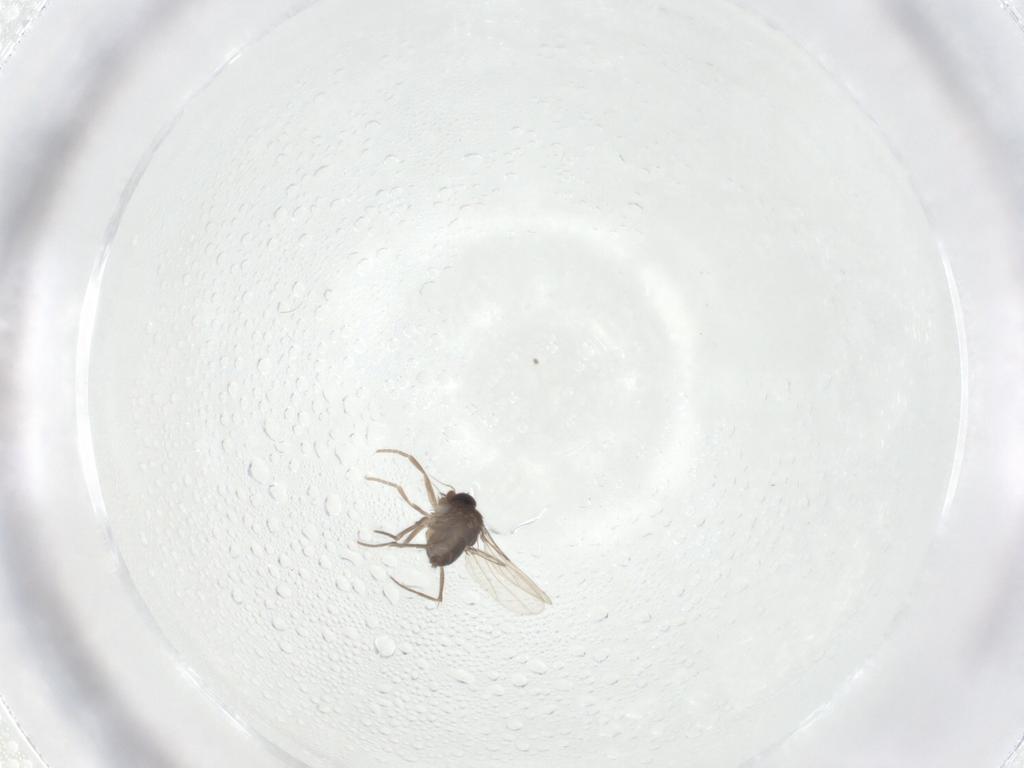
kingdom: Animalia
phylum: Arthropoda
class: Insecta
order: Diptera
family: Phoridae
